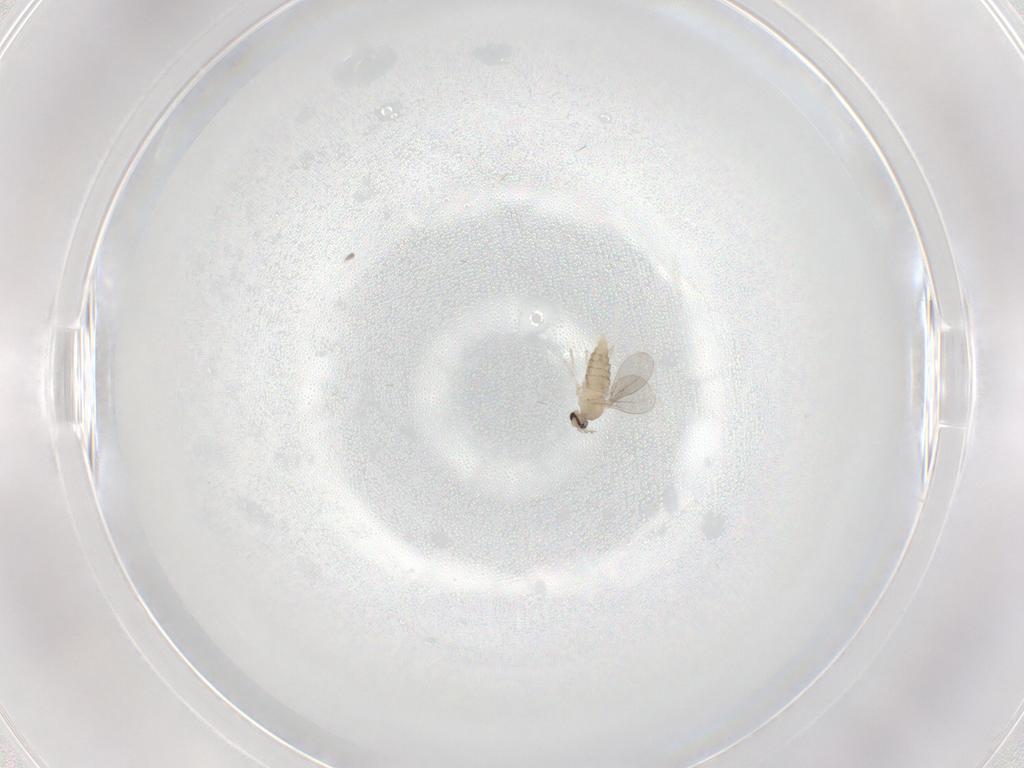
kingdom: Animalia
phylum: Arthropoda
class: Insecta
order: Diptera
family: Cecidomyiidae
